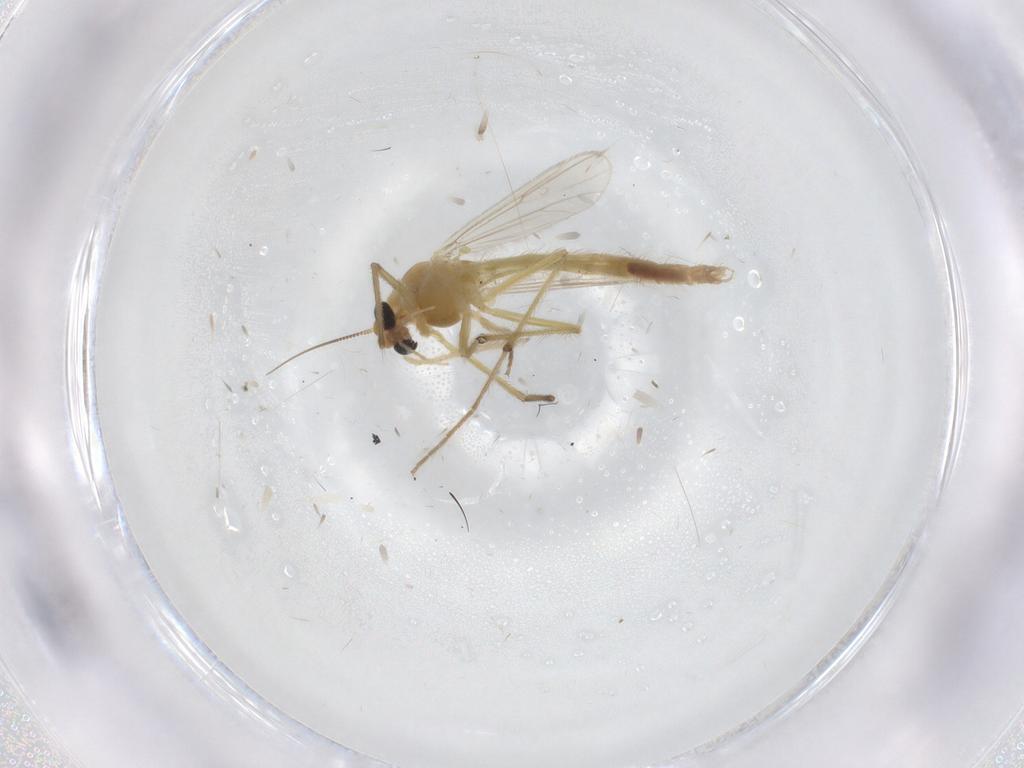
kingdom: Animalia
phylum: Arthropoda
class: Insecta
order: Diptera
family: Chironomidae
